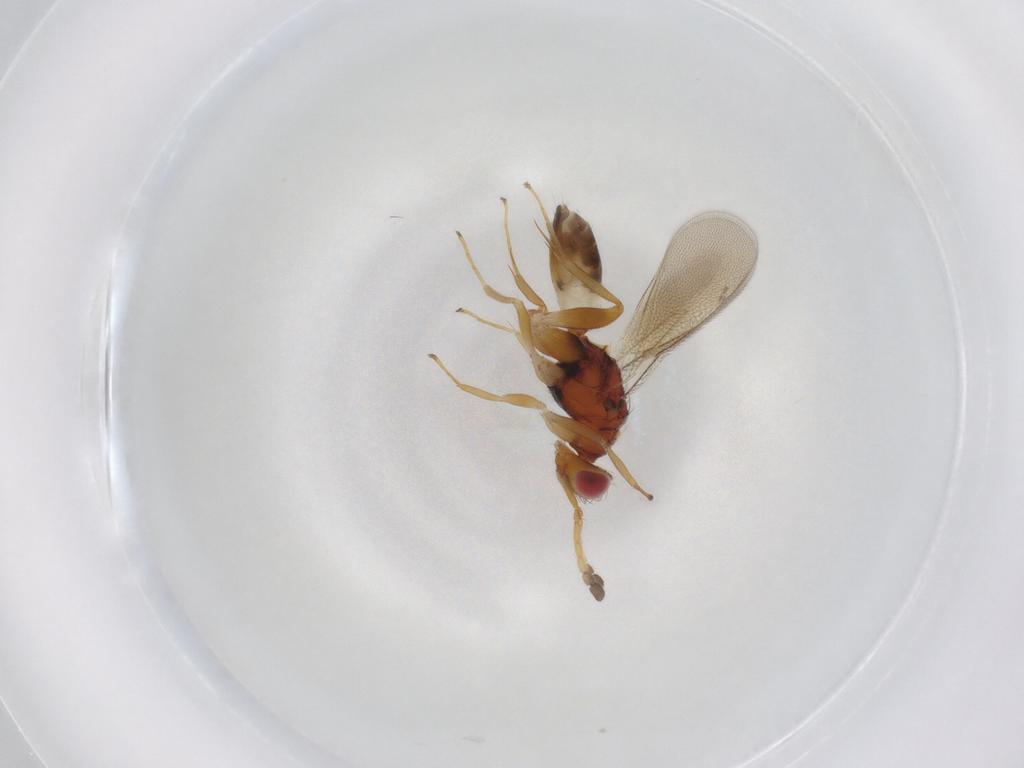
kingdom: Animalia
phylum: Arthropoda
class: Insecta
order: Hymenoptera
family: Eulophidae
